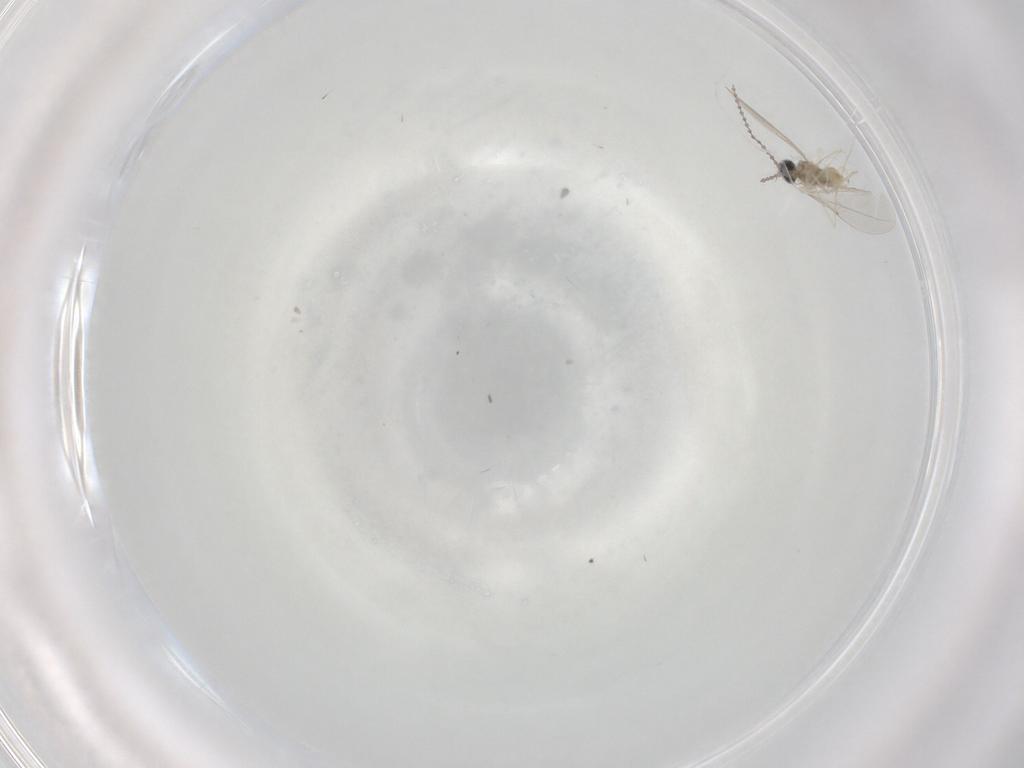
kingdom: Animalia
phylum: Arthropoda
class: Insecta
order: Diptera
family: Cecidomyiidae
